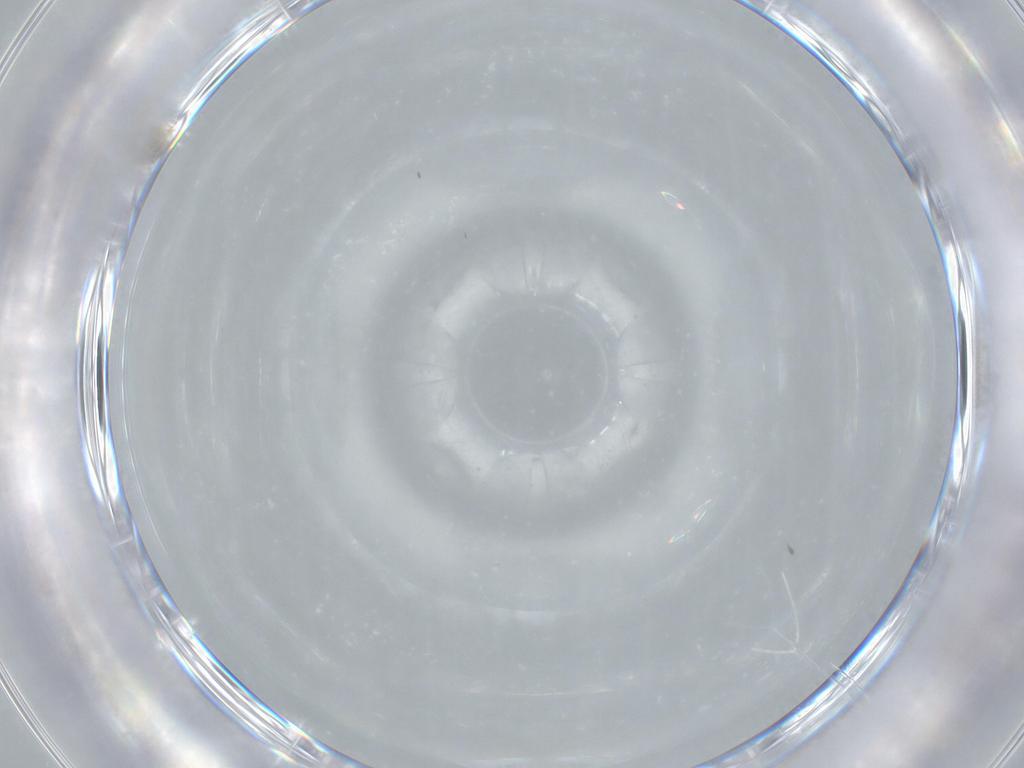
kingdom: Animalia
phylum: Arthropoda
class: Insecta
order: Hymenoptera
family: Trichogrammatidae
